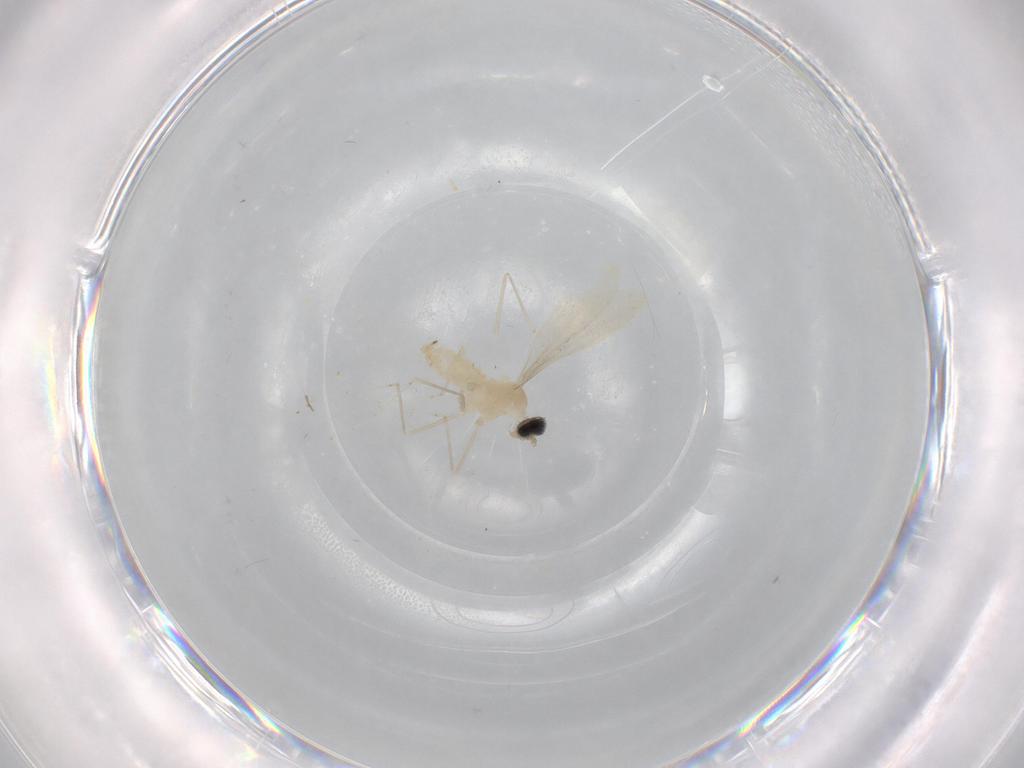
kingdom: Animalia
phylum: Arthropoda
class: Insecta
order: Diptera
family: Cecidomyiidae
